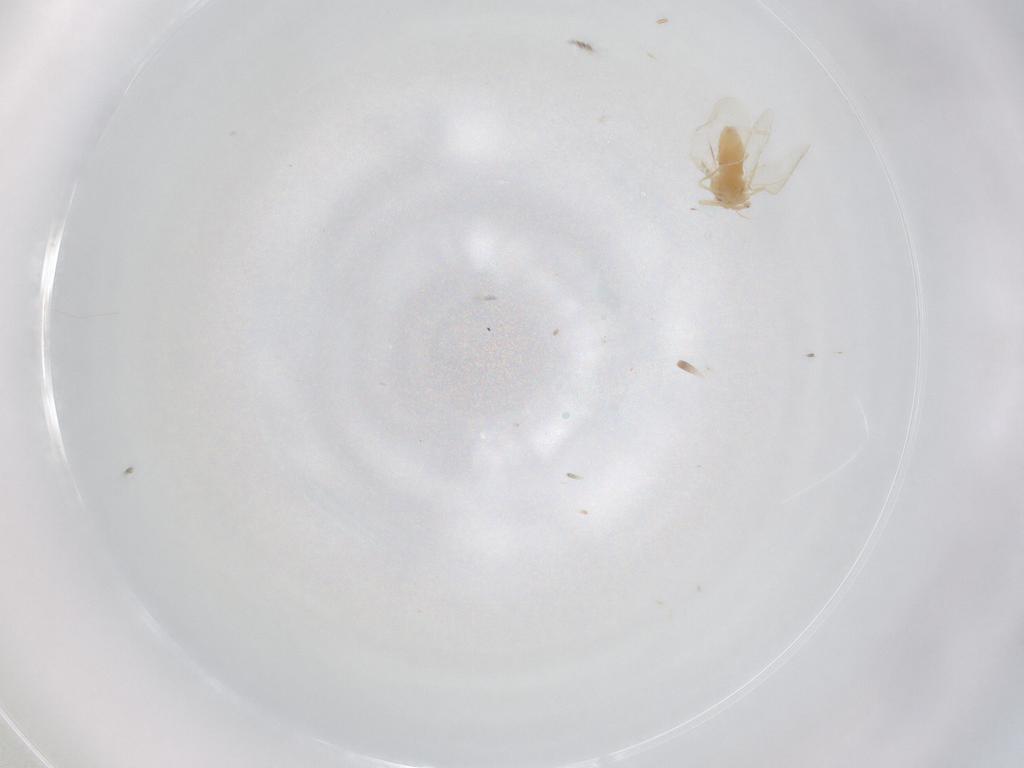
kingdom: Animalia
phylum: Arthropoda
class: Insecta
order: Hemiptera
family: Aleyrodidae
